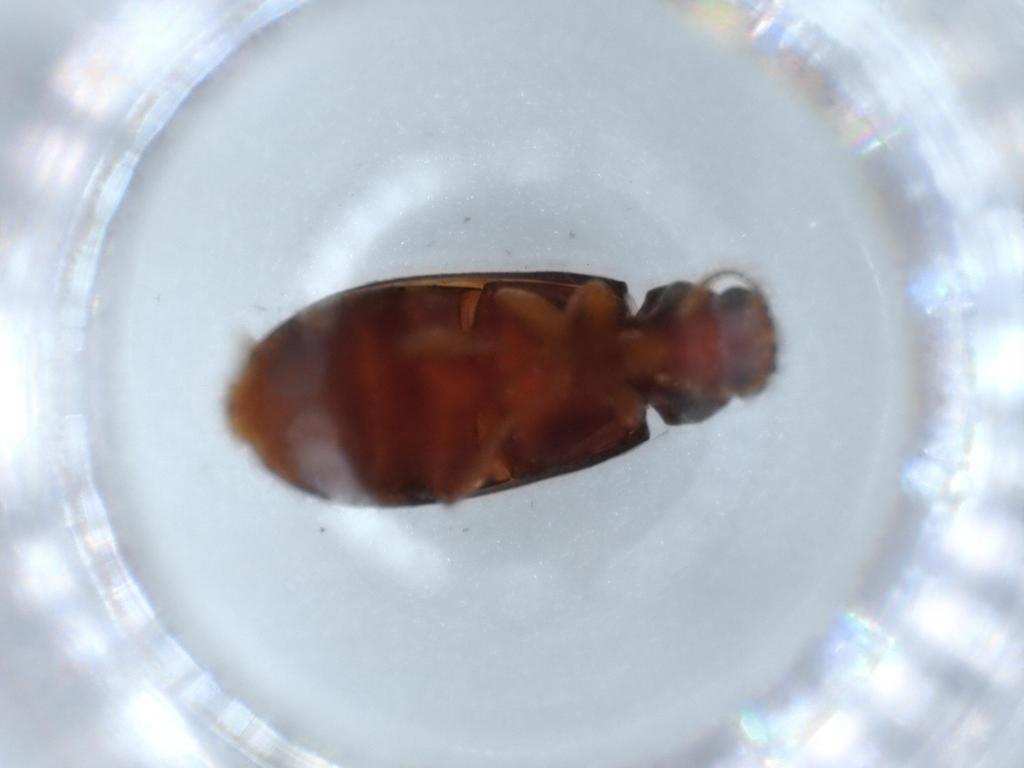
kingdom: Animalia
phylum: Arthropoda
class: Insecta
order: Coleoptera
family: Mycteridae
